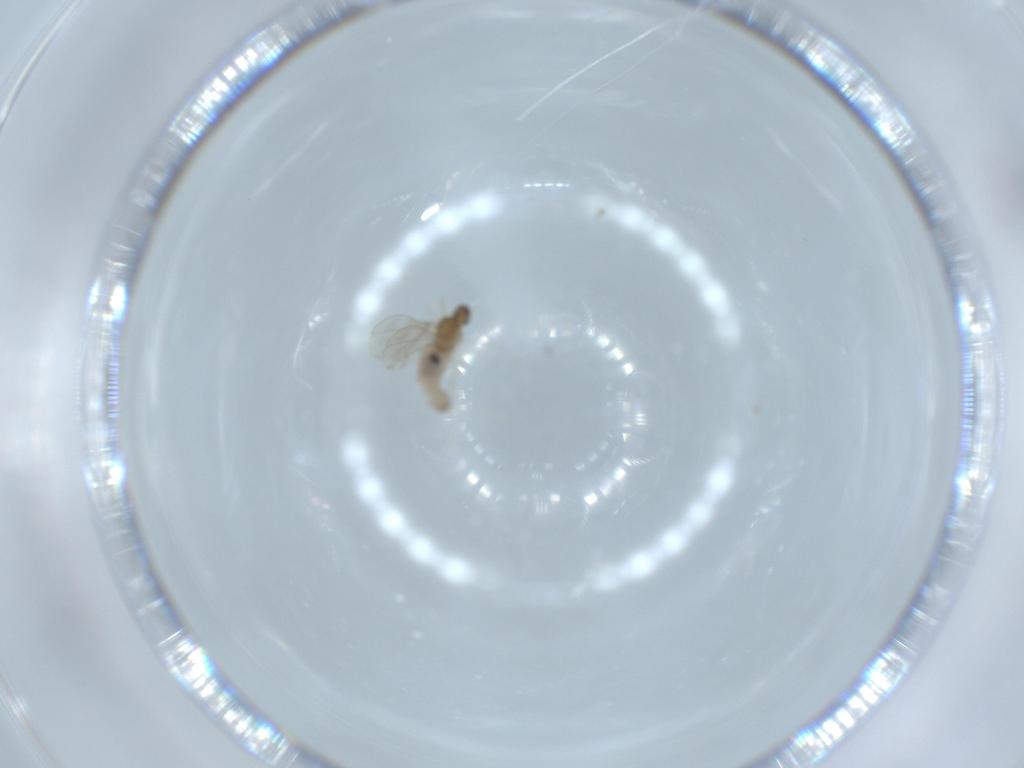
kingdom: Animalia
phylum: Arthropoda
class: Insecta
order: Diptera
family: Cecidomyiidae
